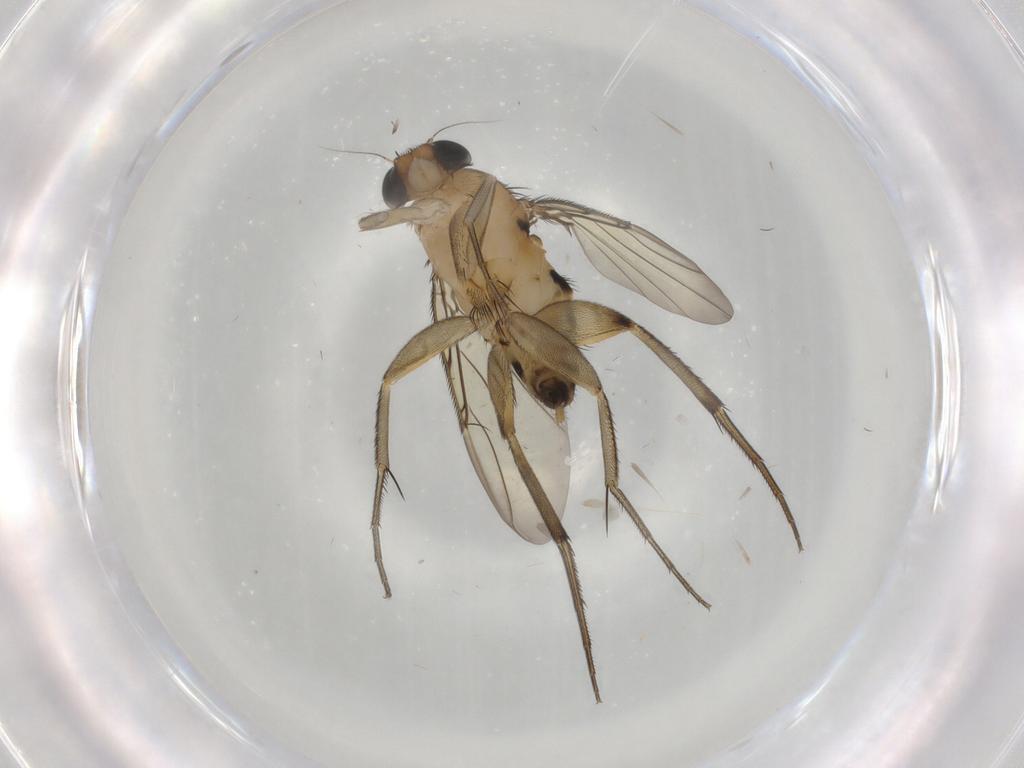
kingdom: Animalia
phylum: Arthropoda
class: Insecta
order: Diptera
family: Phoridae
